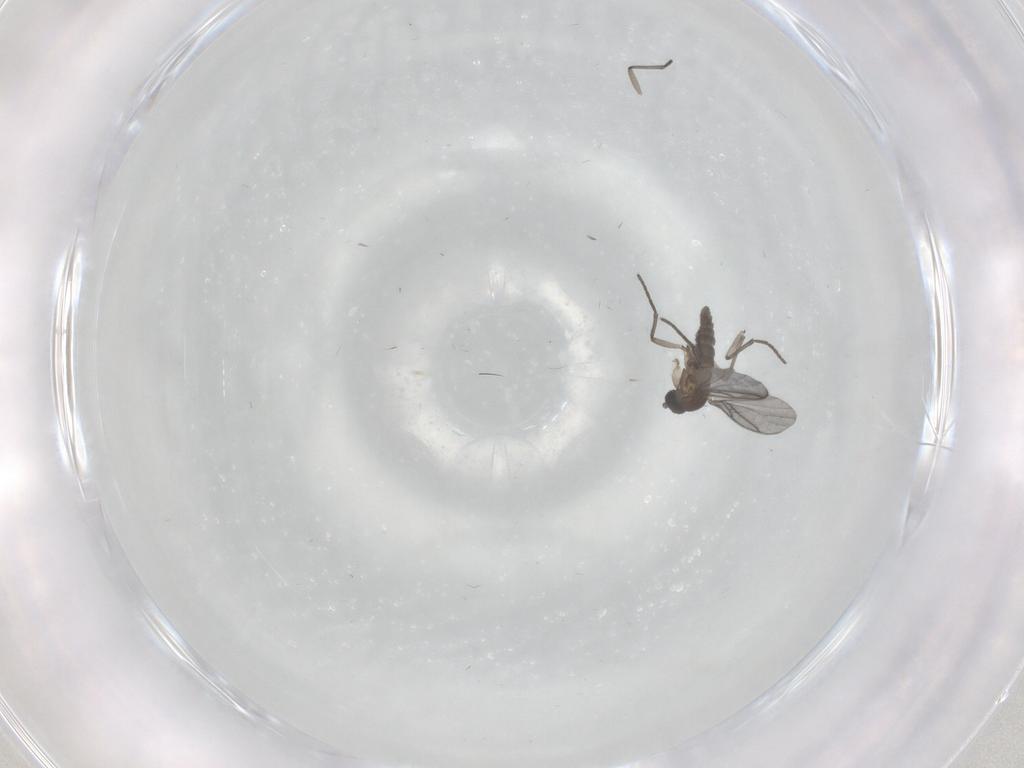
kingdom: Animalia
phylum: Arthropoda
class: Insecta
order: Diptera
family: Sciaridae
